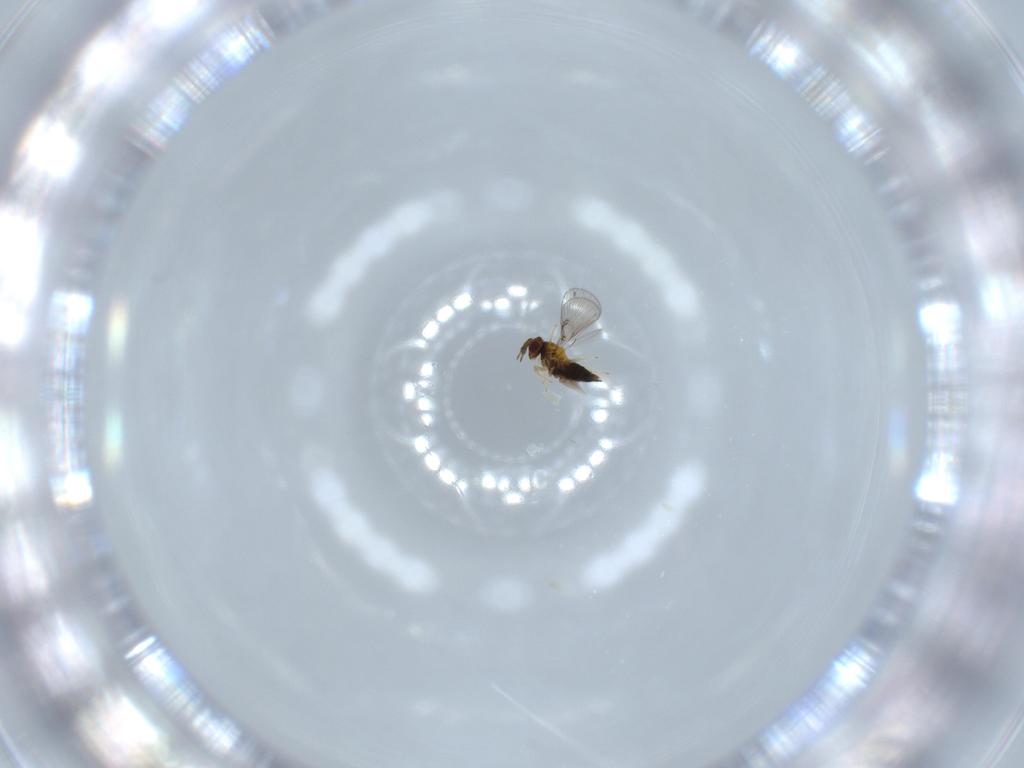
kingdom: Animalia
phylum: Arthropoda
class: Insecta
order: Hymenoptera
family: Trichogrammatidae
